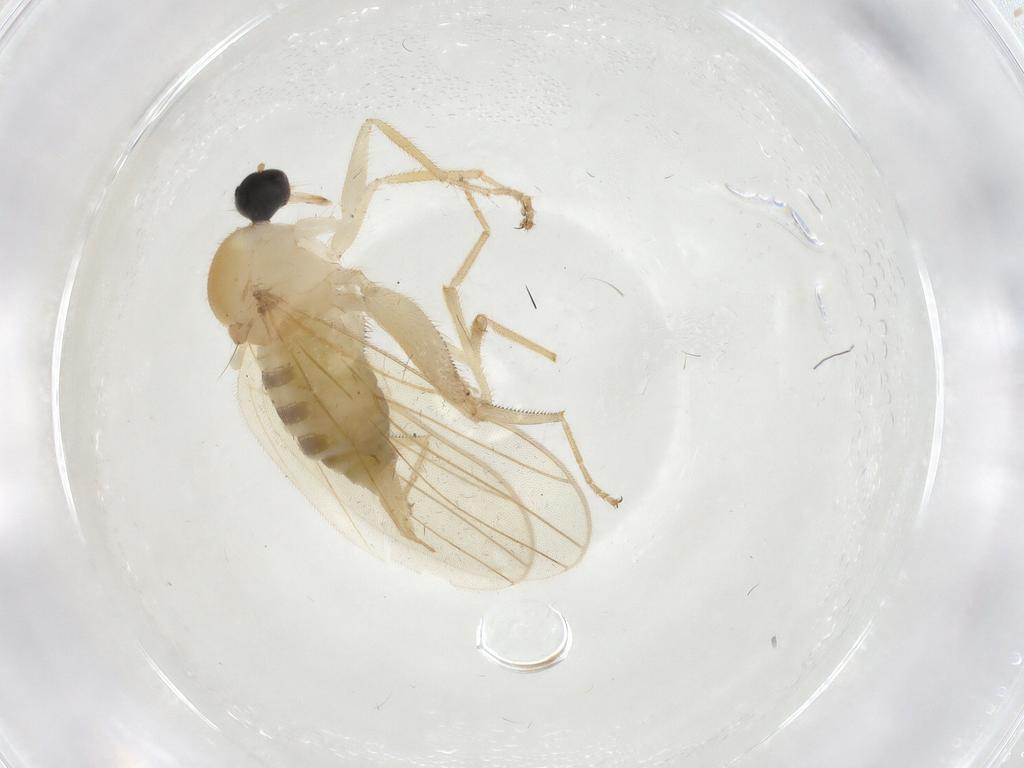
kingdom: Animalia
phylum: Arthropoda
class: Insecta
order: Diptera
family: Hybotidae
